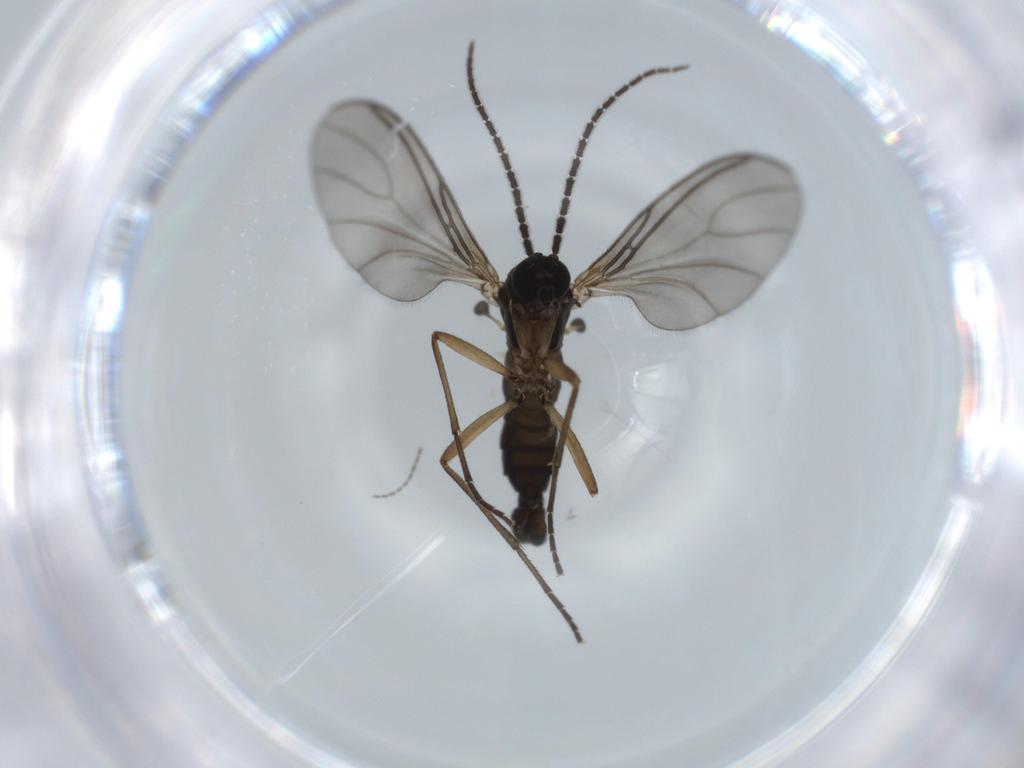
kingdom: Animalia
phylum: Arthropoda
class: Insecta
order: Diptera
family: Sciaridae
